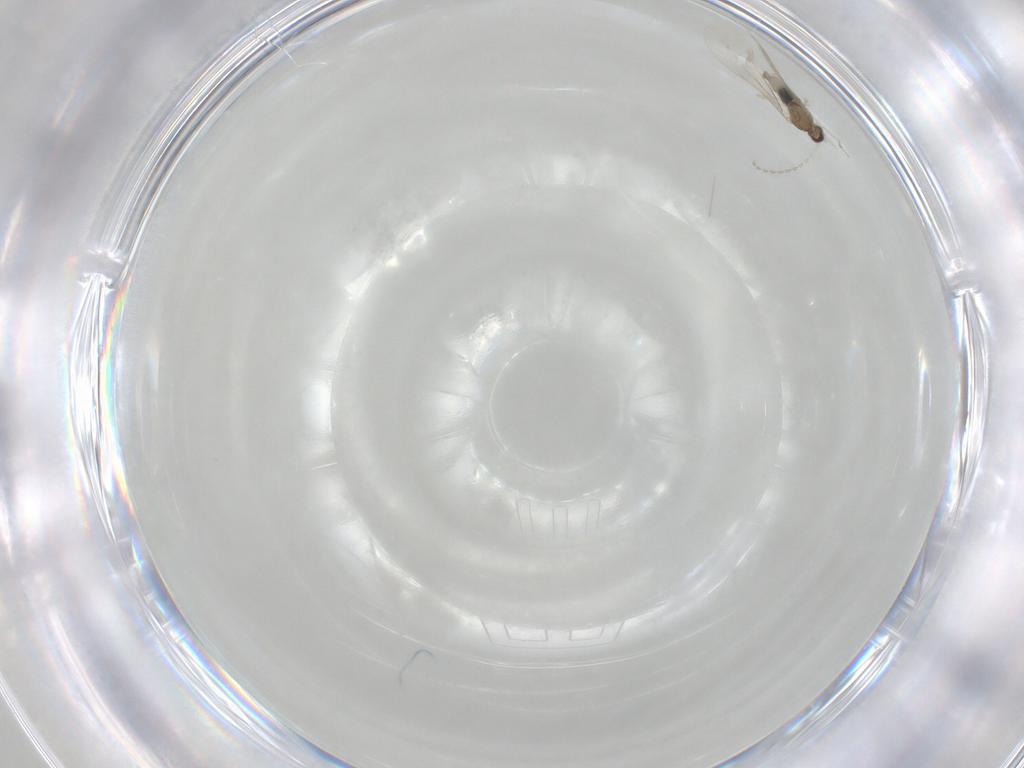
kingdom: Animalia
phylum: Arthropoda
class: Insecta
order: Diptera
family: Cecidomyiidae
